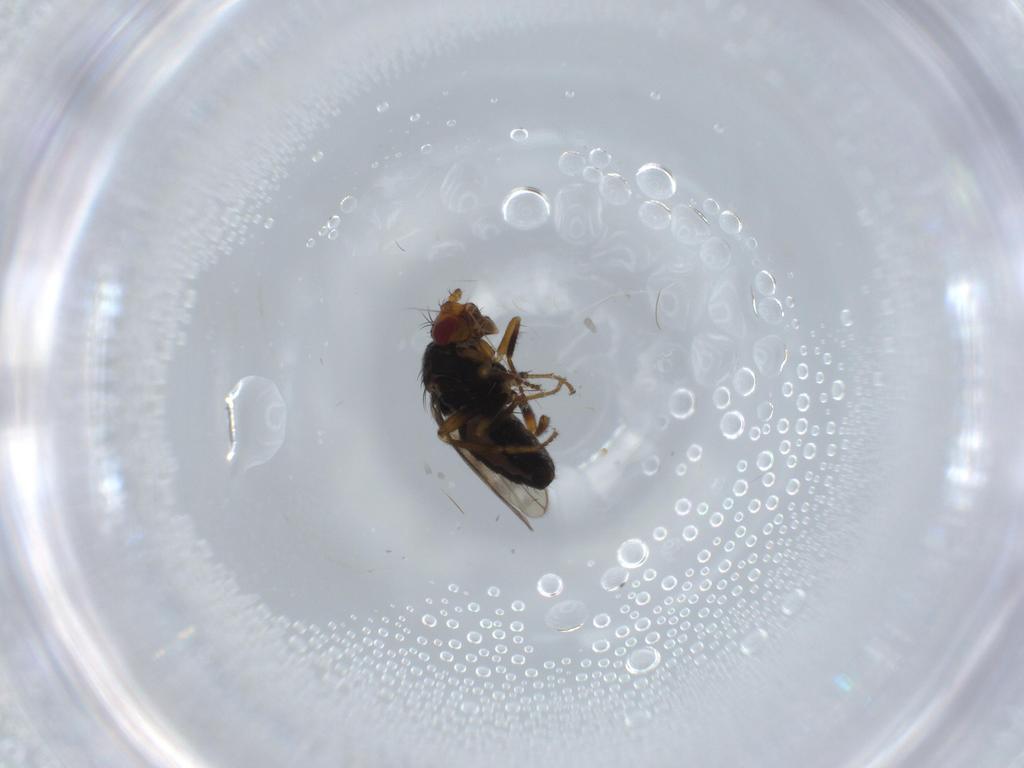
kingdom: Animalia
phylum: Arthropoda
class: Insecta
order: Diptera
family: Sphaeroceridae
